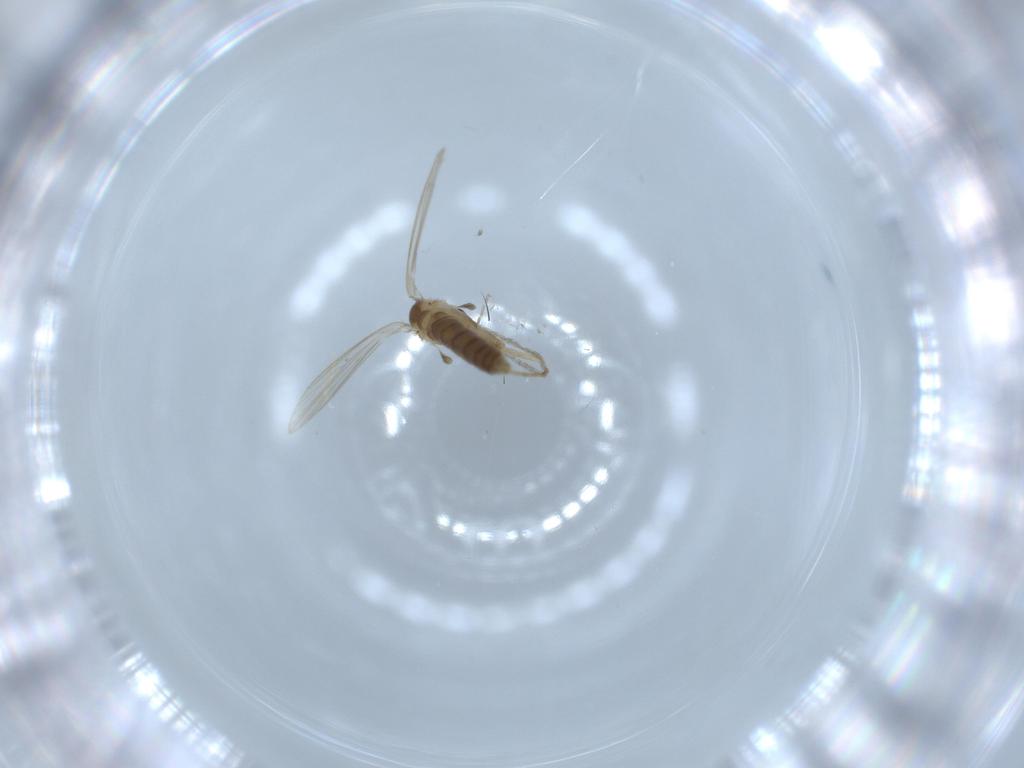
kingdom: Animalia
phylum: Arthropoda
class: Insecta
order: Diptera
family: Psychodidae
